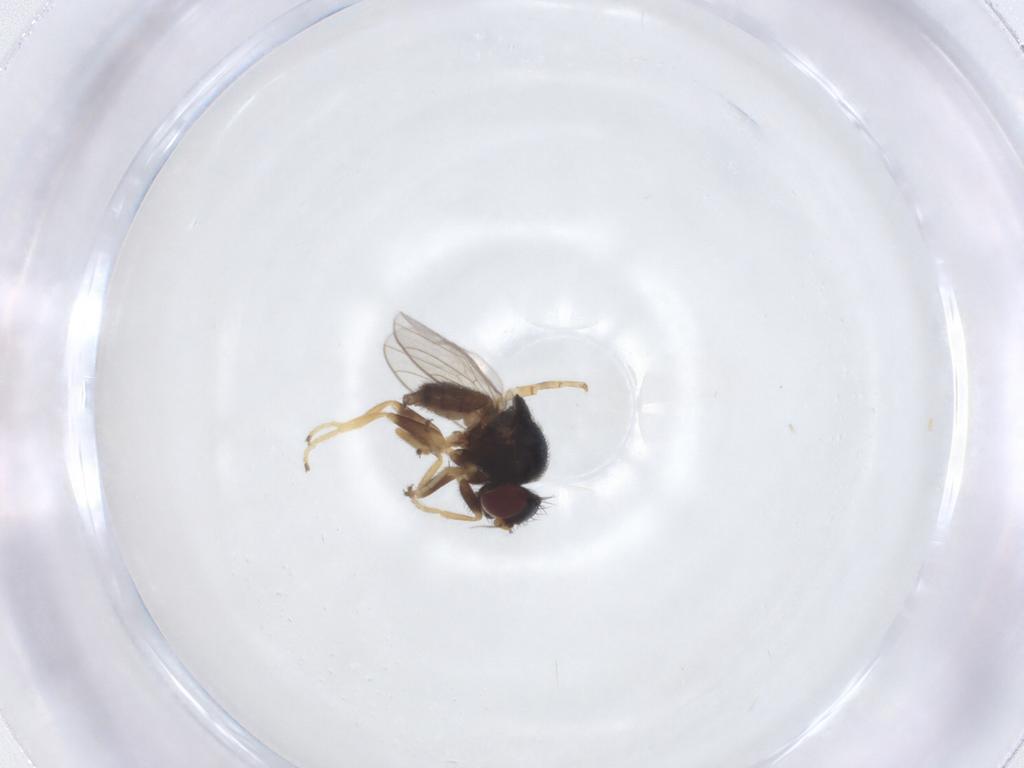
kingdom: Animalia
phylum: Arthropoda
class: Insecta
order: Diptera
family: Chloropidae
